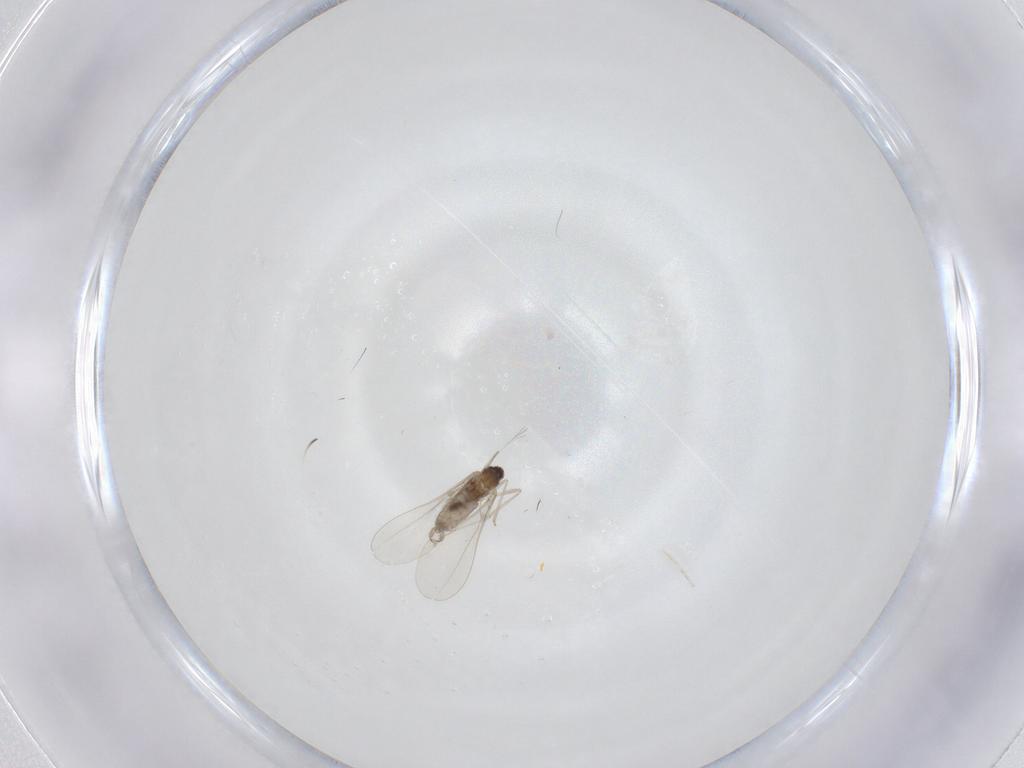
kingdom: Animalia
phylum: Arthropoda
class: Insecta
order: Diptera
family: Cecidomyiidae
